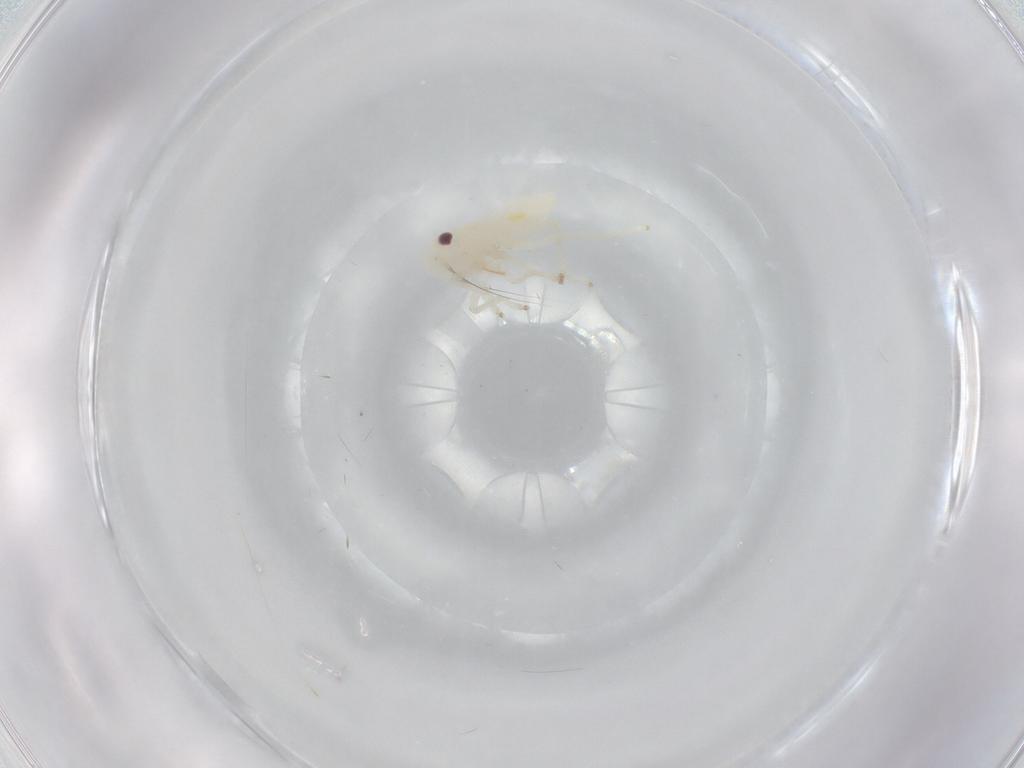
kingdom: Animalia
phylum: Arthropoda
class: Insecta
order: Hemiptera
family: Cicadellidae
